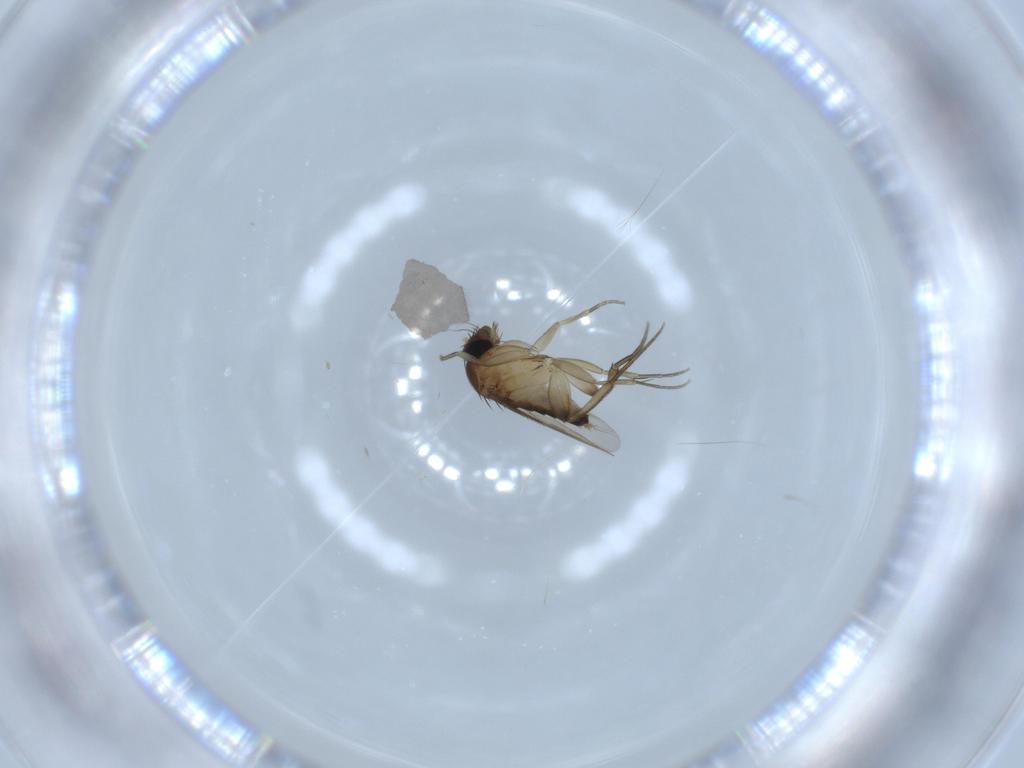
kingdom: Animalia
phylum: Arthropoda
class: Insecta
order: Diptera
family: Phoridae
